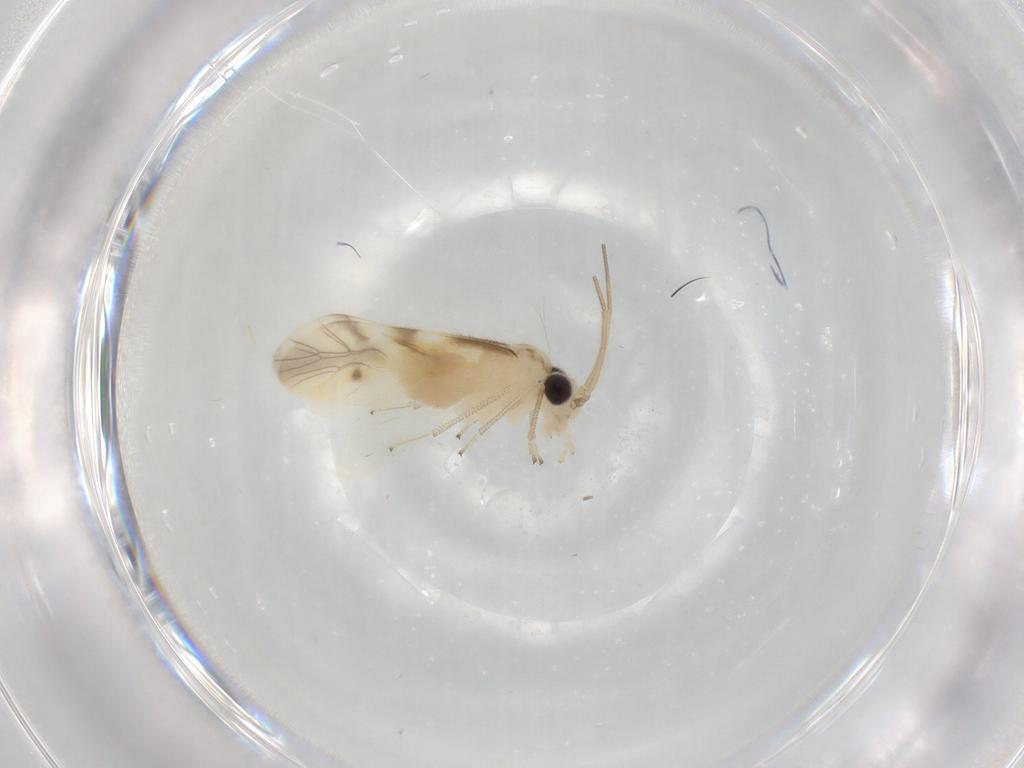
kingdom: Animalia
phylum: Arthropoda
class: Insecta
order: Psocodea
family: Caeciliusidae
